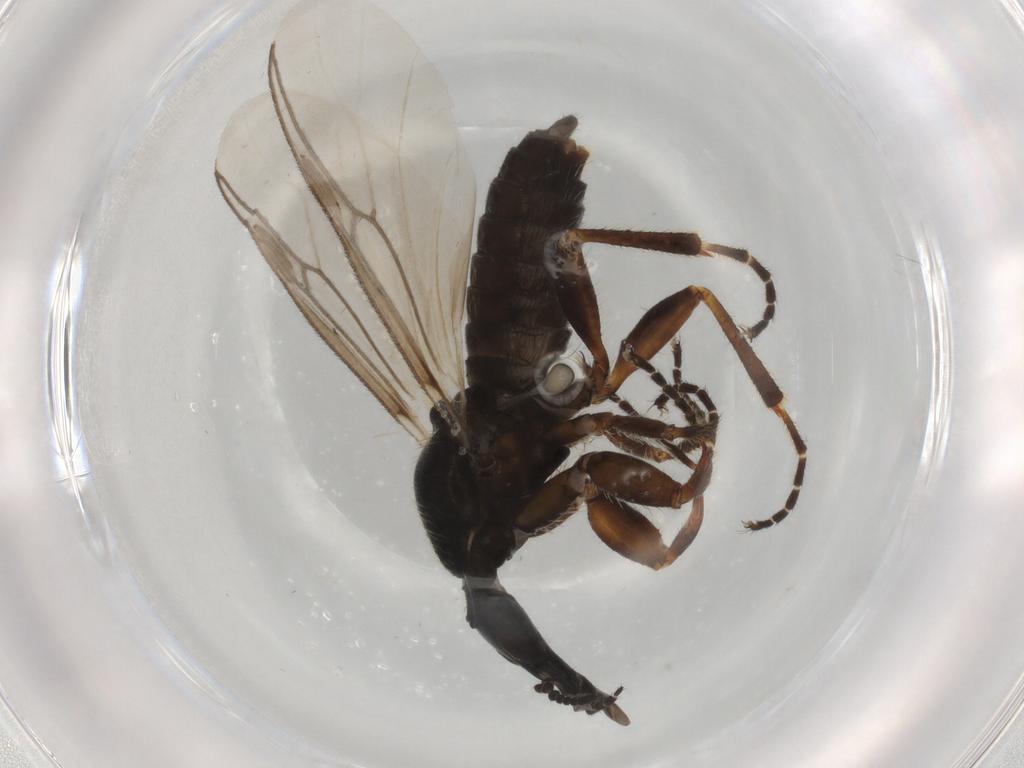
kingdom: Animalia
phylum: Arthropoda
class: Insecta
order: Diptera
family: Bibionidae
